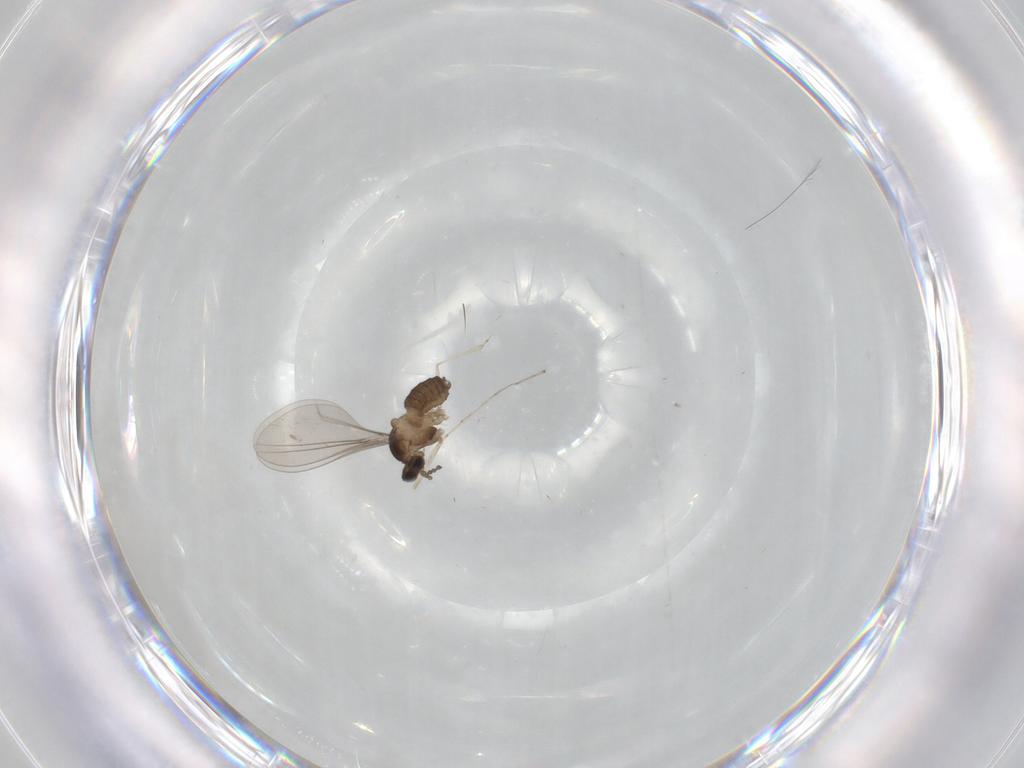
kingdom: Animalia
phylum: Arthropoda
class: Insecta
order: Diptera
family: Cecidomyiidae
